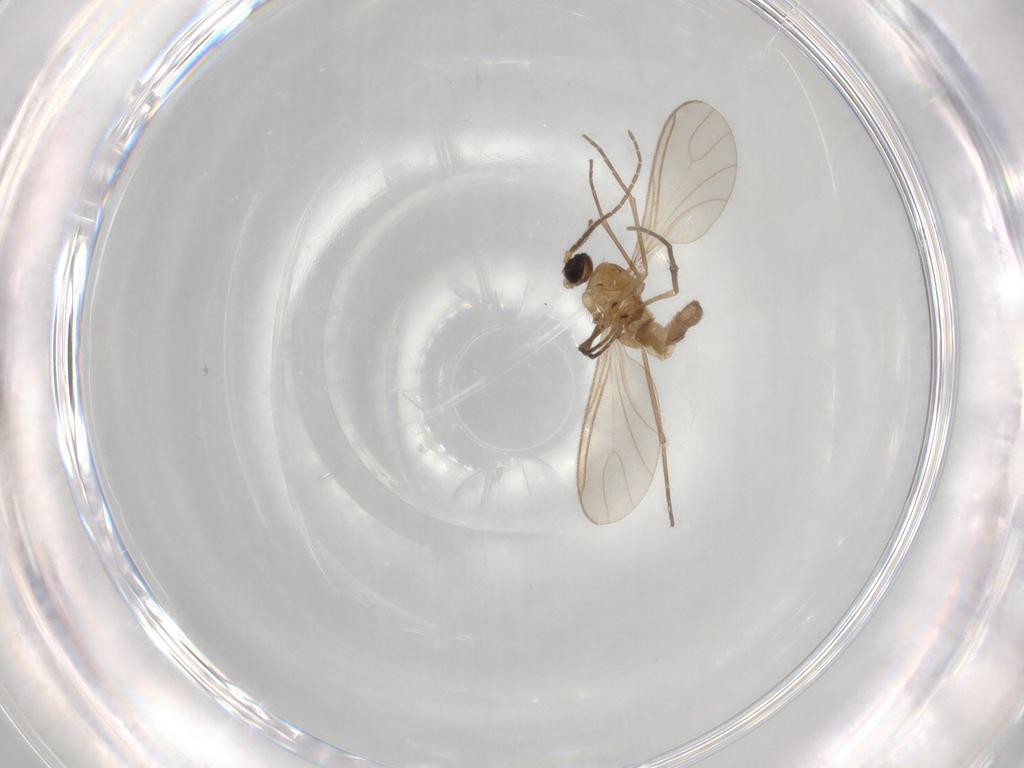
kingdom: Animalia
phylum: Arthropoda
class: Insecta
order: Diptera
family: Sciaridae
